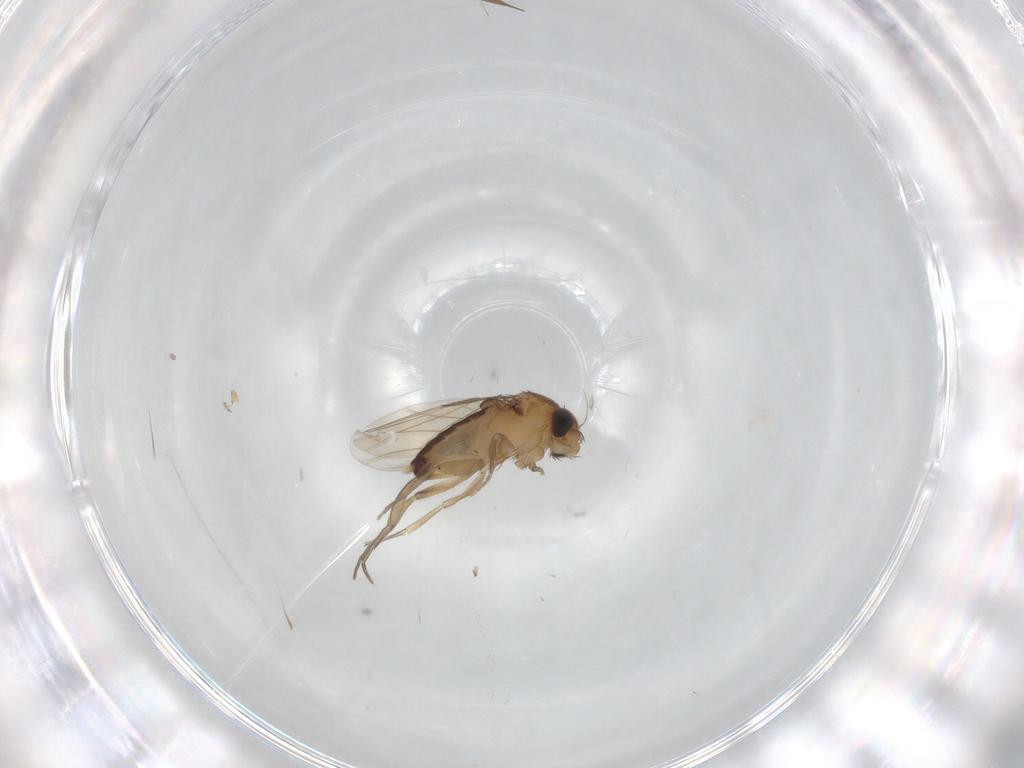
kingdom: Animalia
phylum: Arthropoda
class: Insecta
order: Diptera
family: Phoridae
